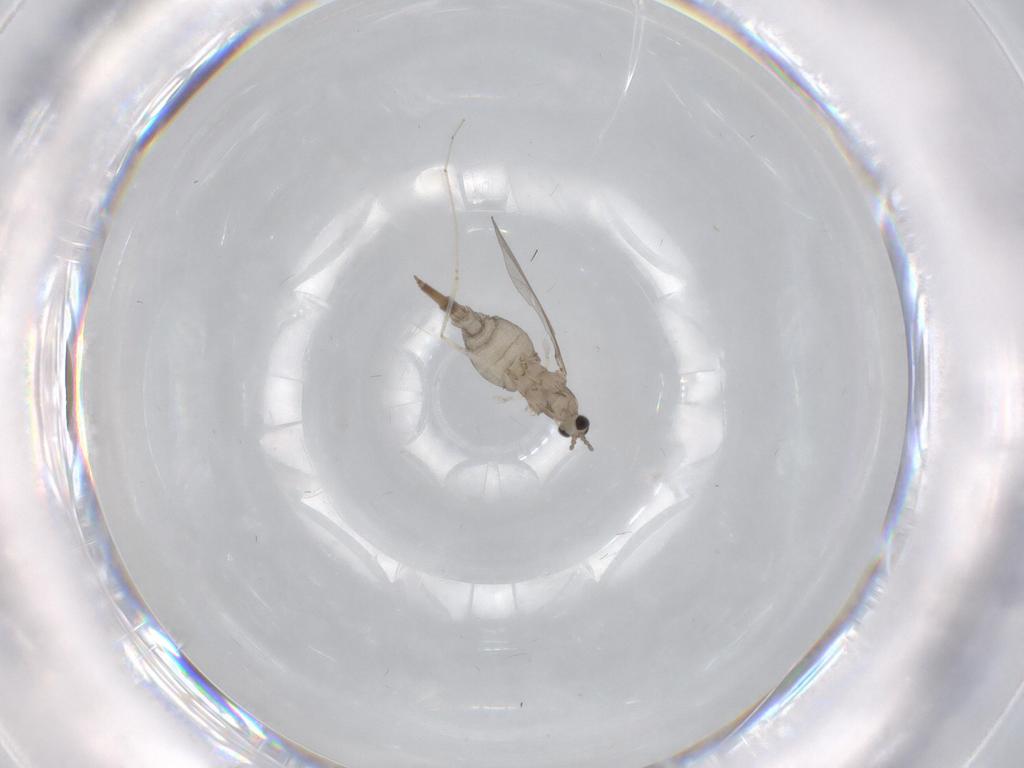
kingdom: Animalia
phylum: Arthropoda
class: Insecta
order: Diptera
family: Cecidomyiidae
